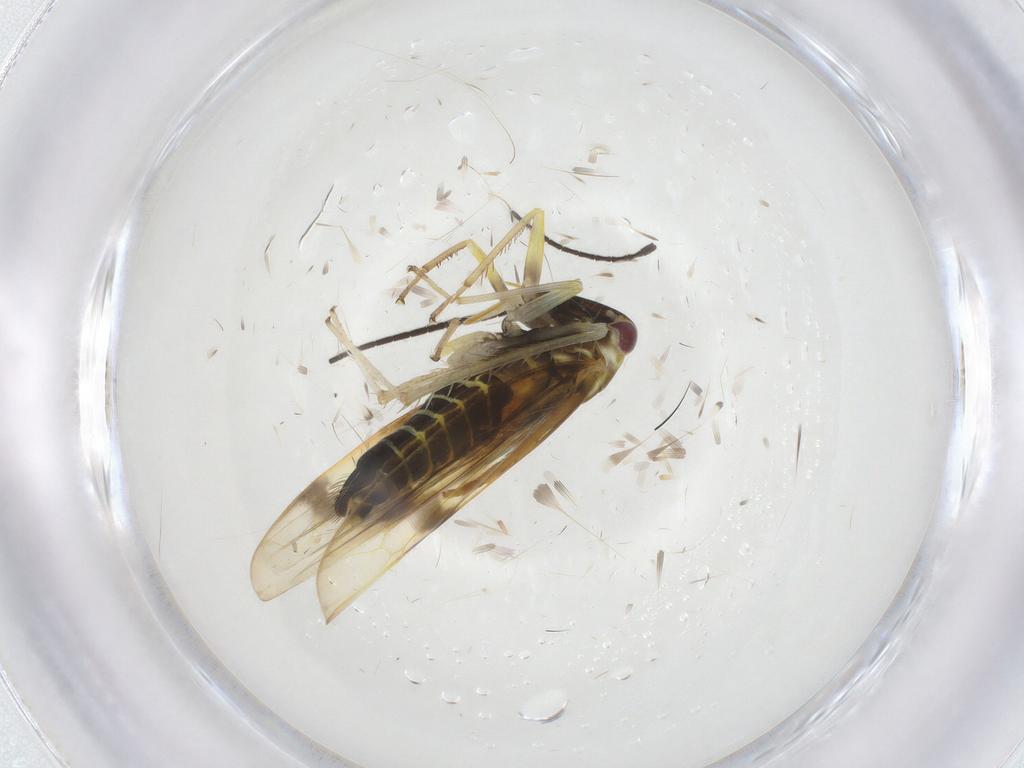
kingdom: Animalia
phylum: Arthropoda
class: Insecta
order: Hemiptera
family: Cicadellidae
